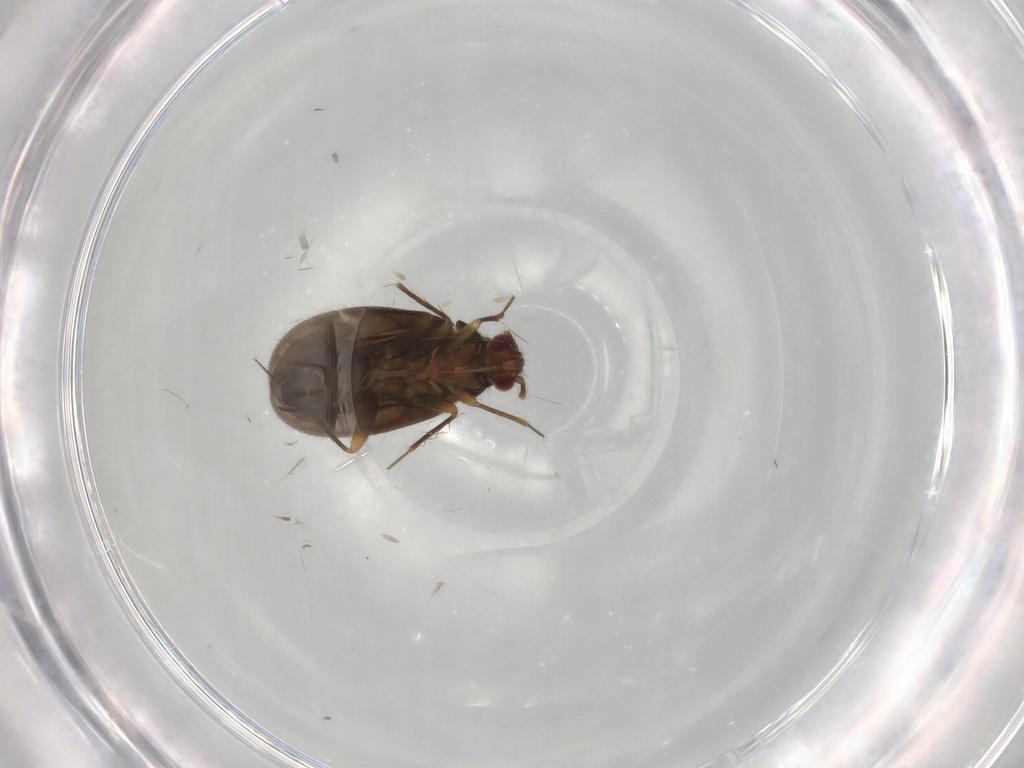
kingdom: Animalia
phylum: Arthropoda
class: Insecta
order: Hemiptera
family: Ceratocombidae
